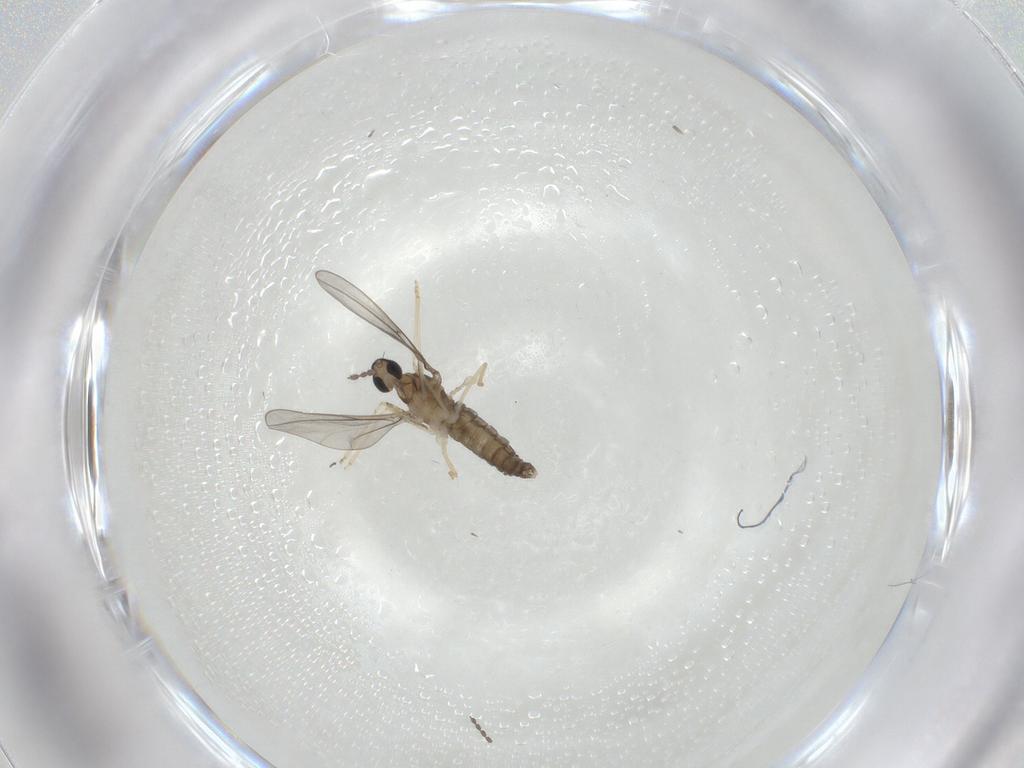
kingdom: Animalia
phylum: Arthropoda
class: Insecta
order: Diptera
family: Cecidomyiidae
